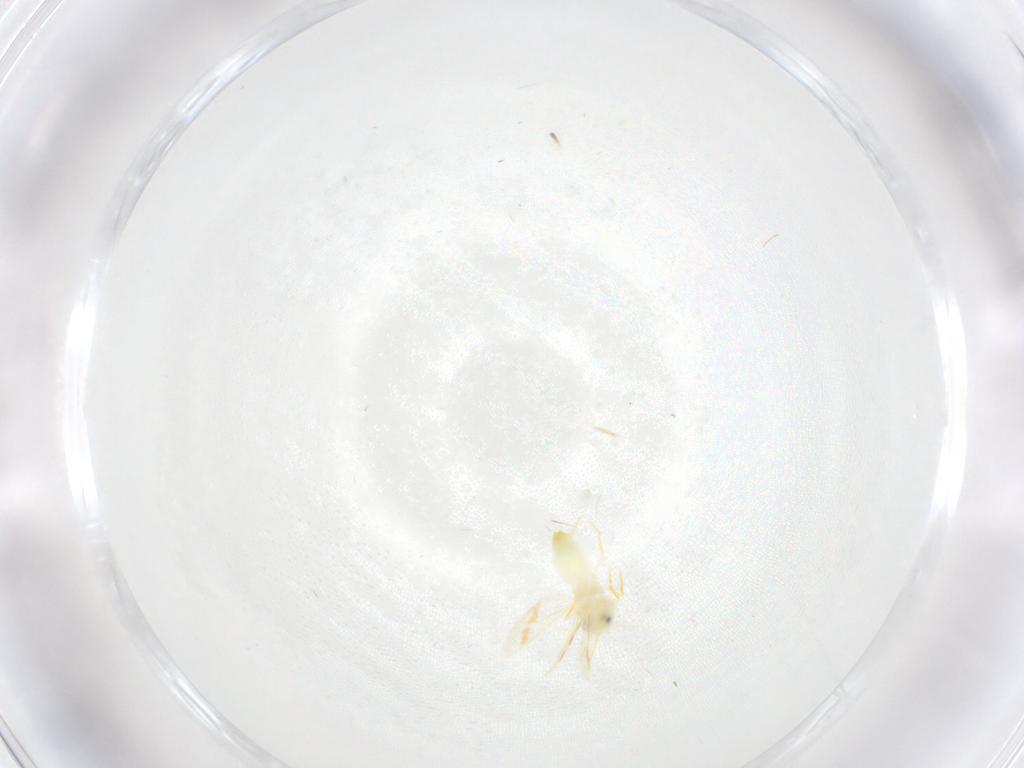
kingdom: Animalia
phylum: Arthropoda
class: Insecta
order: Hemiptera
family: Aleyrodidae
